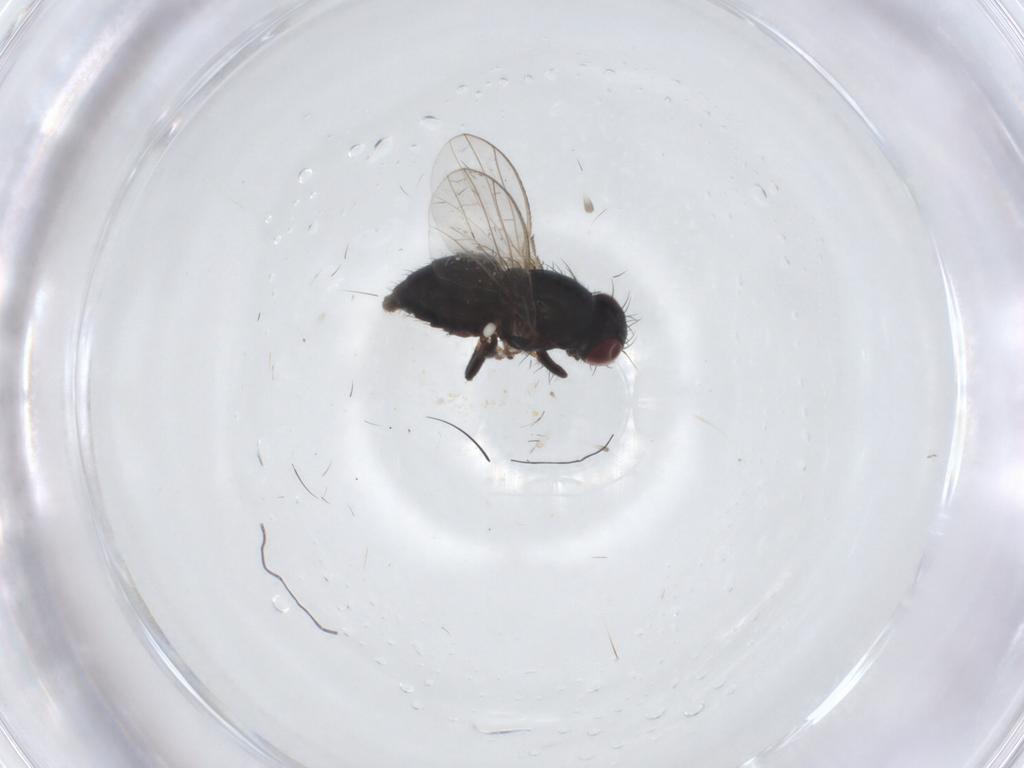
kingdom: Animalia
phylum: Arthropoda
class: Insecta
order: Diptera
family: Carnidae
